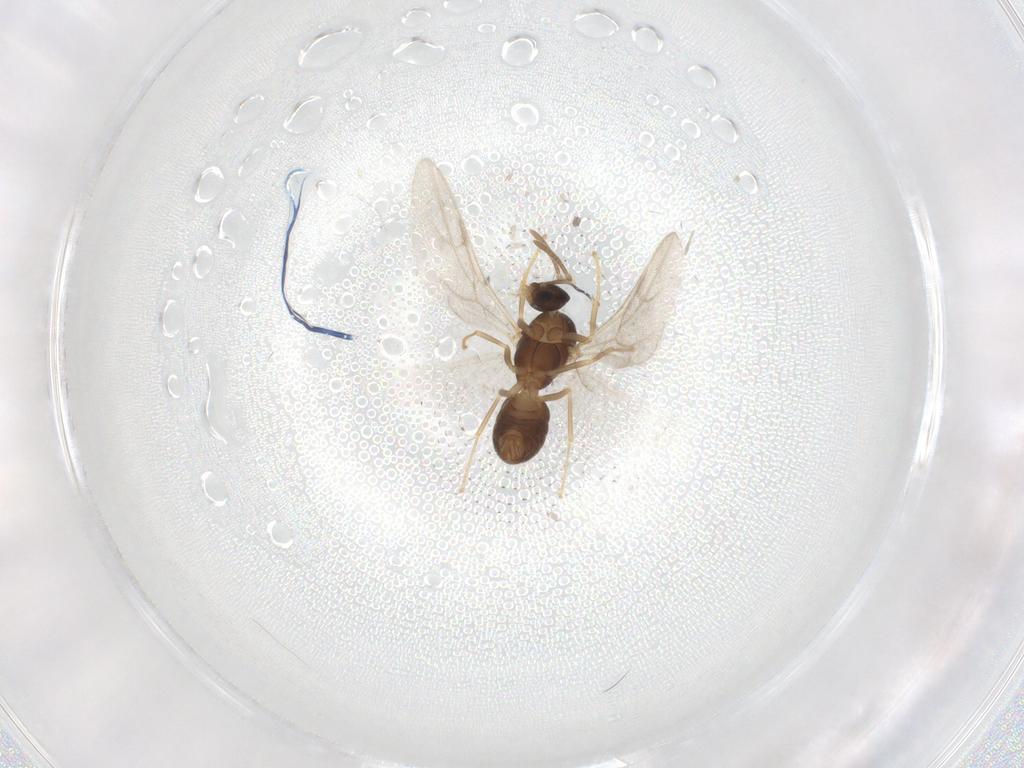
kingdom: Animalia
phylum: Arthropoda
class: Insecta
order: Hymenoptera
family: Formicidae
